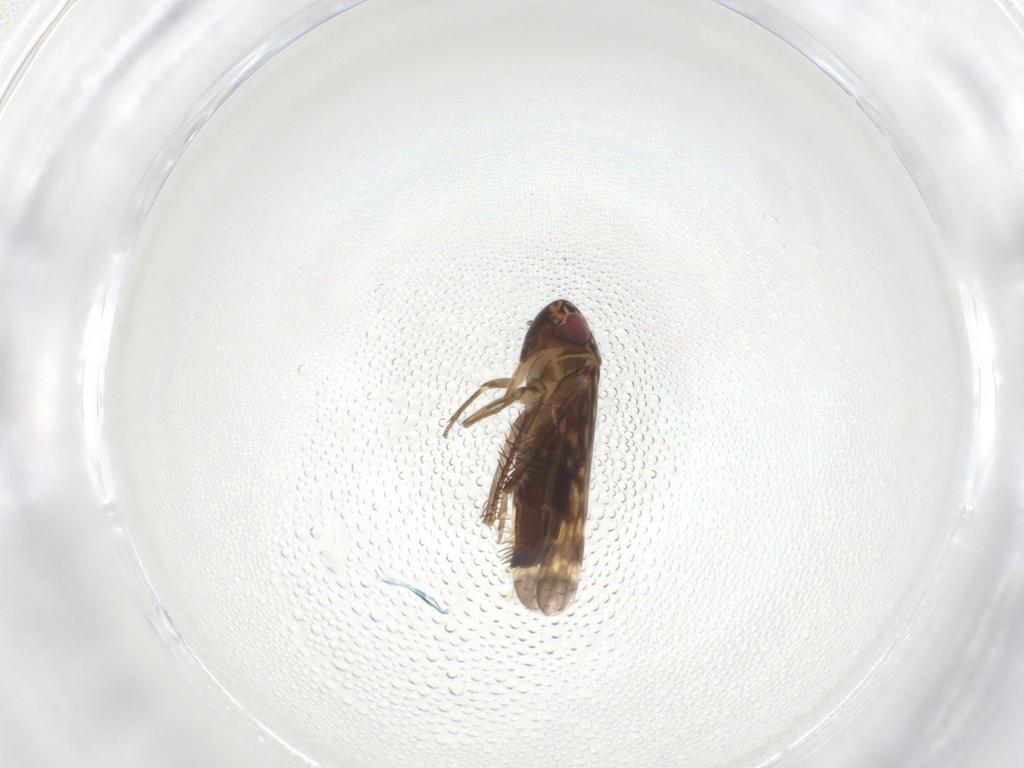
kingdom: Animalia
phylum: Arthropoda
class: Insecta
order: Hemiptera
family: Cicadellidae
